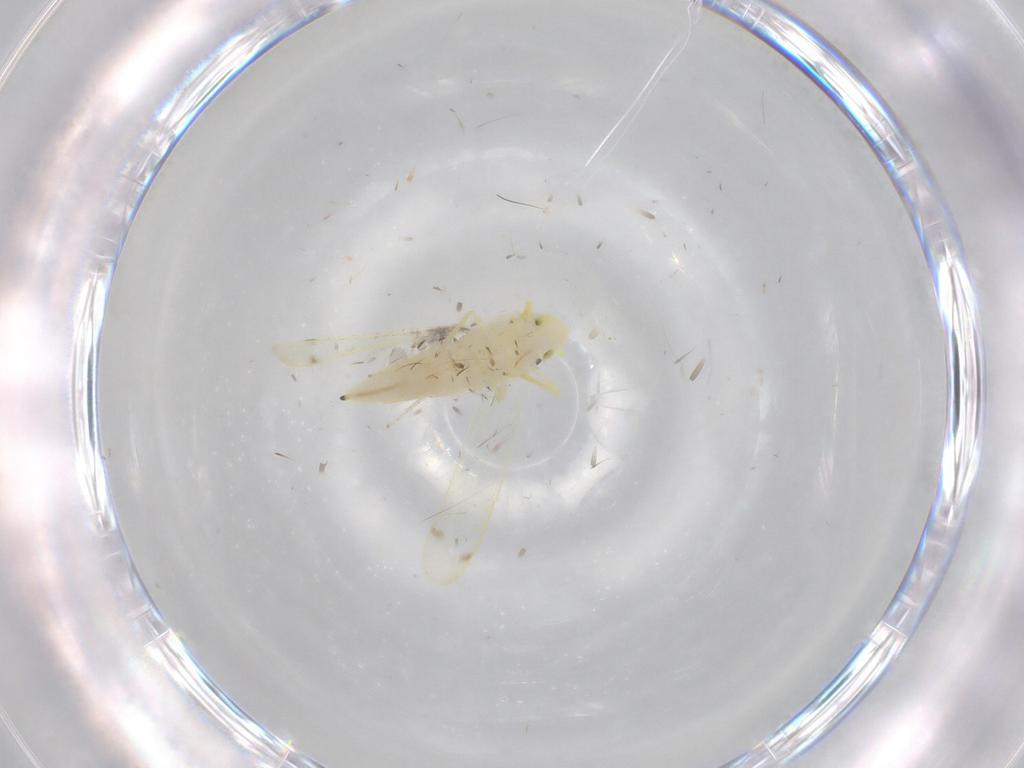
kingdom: Animalia
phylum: Arthropoda
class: Insecta
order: Hemiptera
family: Cicadellidae
